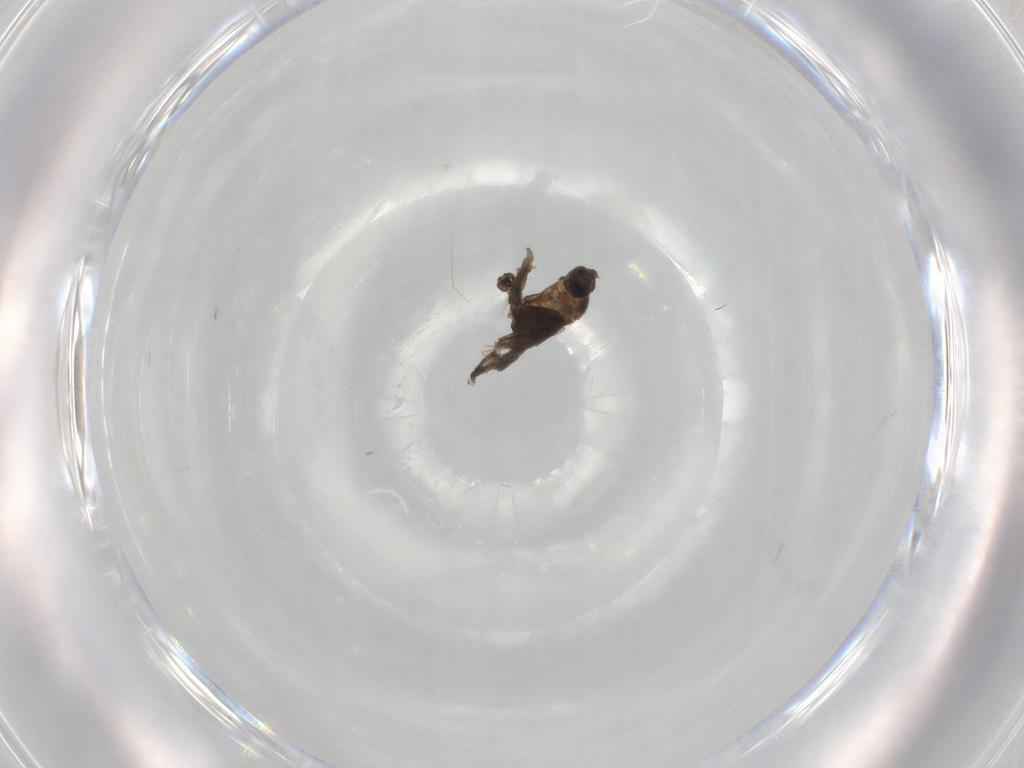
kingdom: Animalia
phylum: Arthropoda
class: Insecta
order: Diptera
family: Psychodidae
